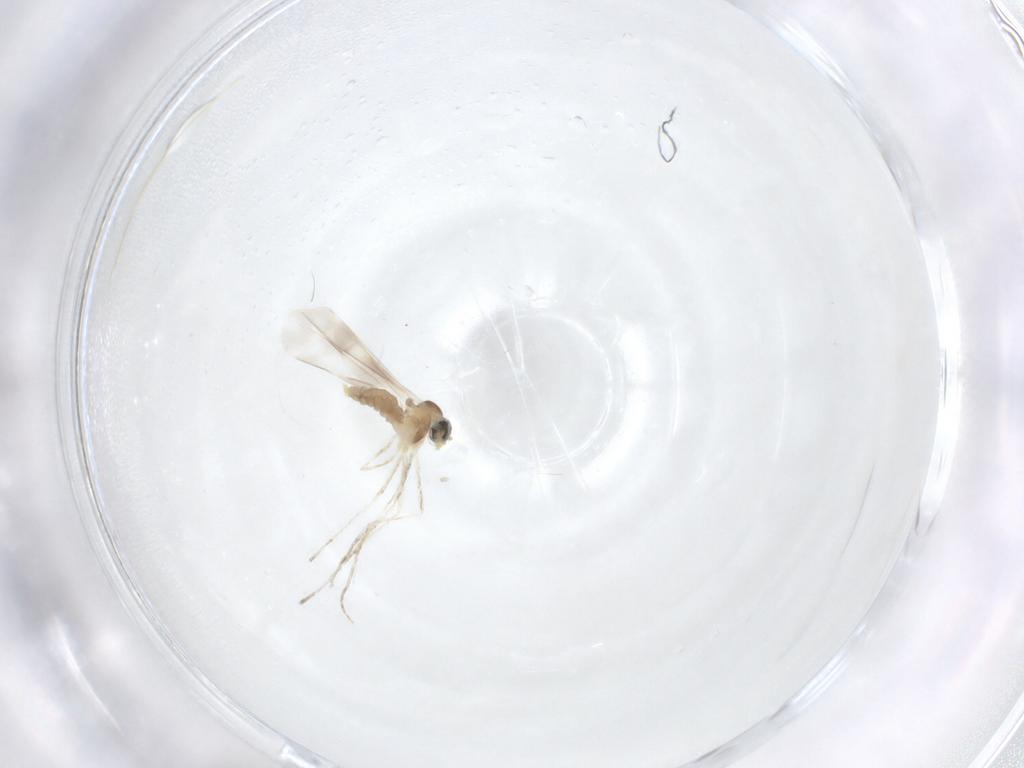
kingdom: Animalia
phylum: Arthropoda
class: Insecta
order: Diptera
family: Cecidomyiidae
